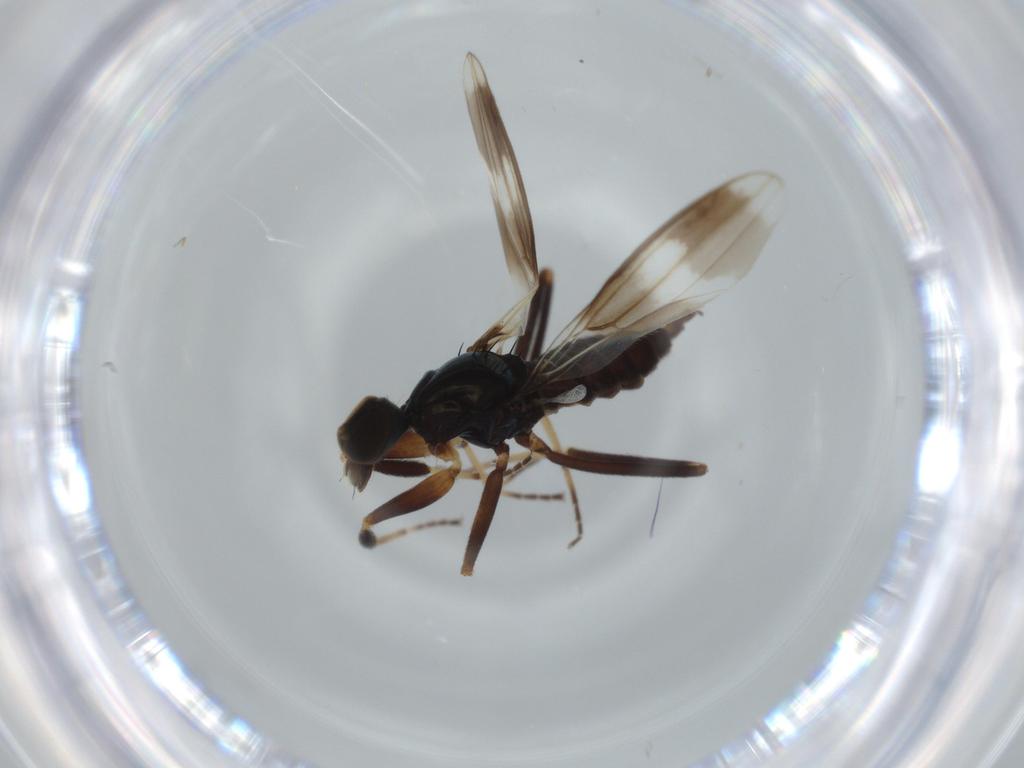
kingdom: Animalia
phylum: Arthropoda
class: Insecta
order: Diptera
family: Hybotidae
